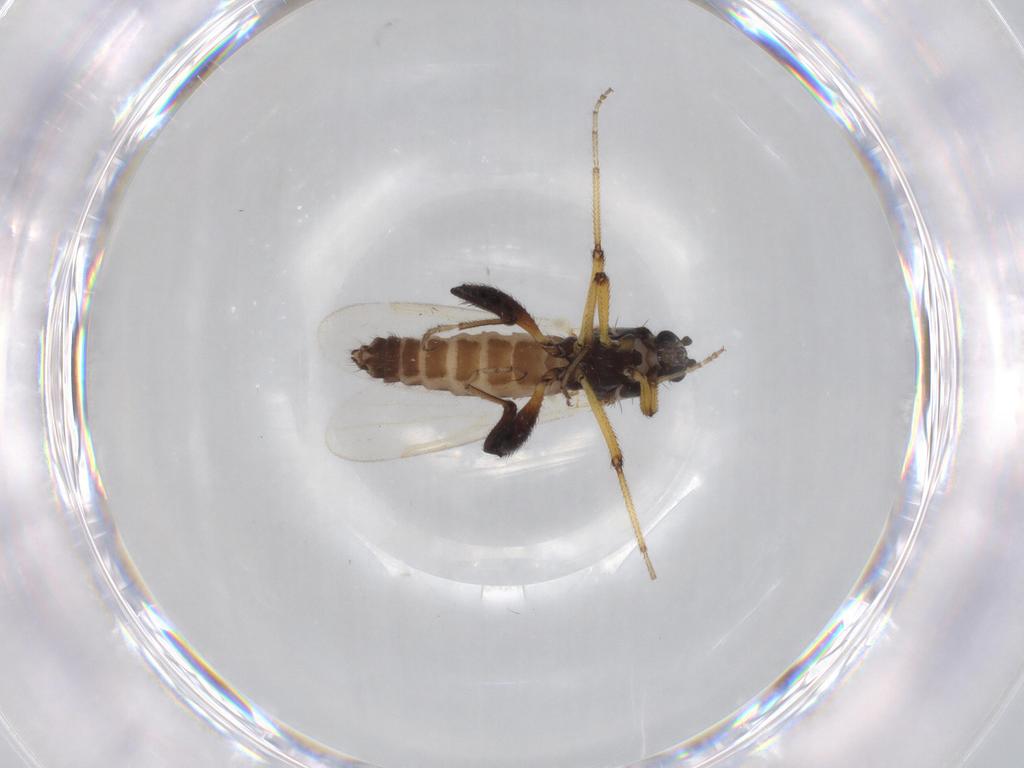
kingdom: Animalia
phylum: Arthropoda
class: Insecta
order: Diptera
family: Ceratopogonidae
